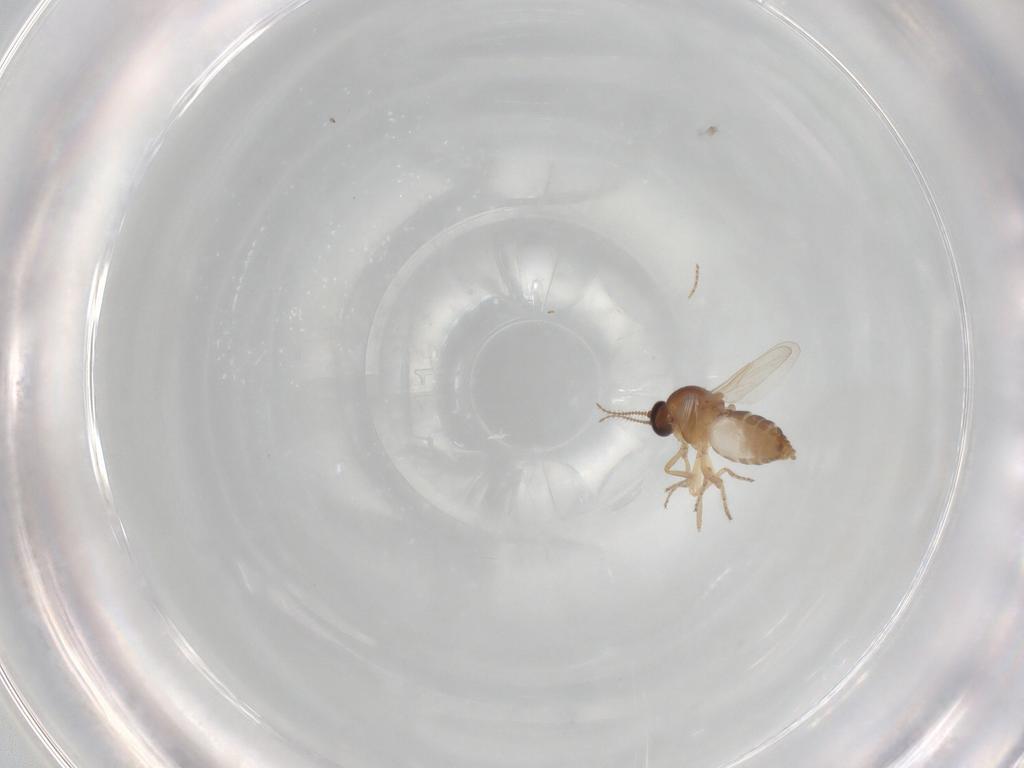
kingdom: Animalia
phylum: Arthropoda
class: Insecta
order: Diptera
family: Ceratopogonidae
